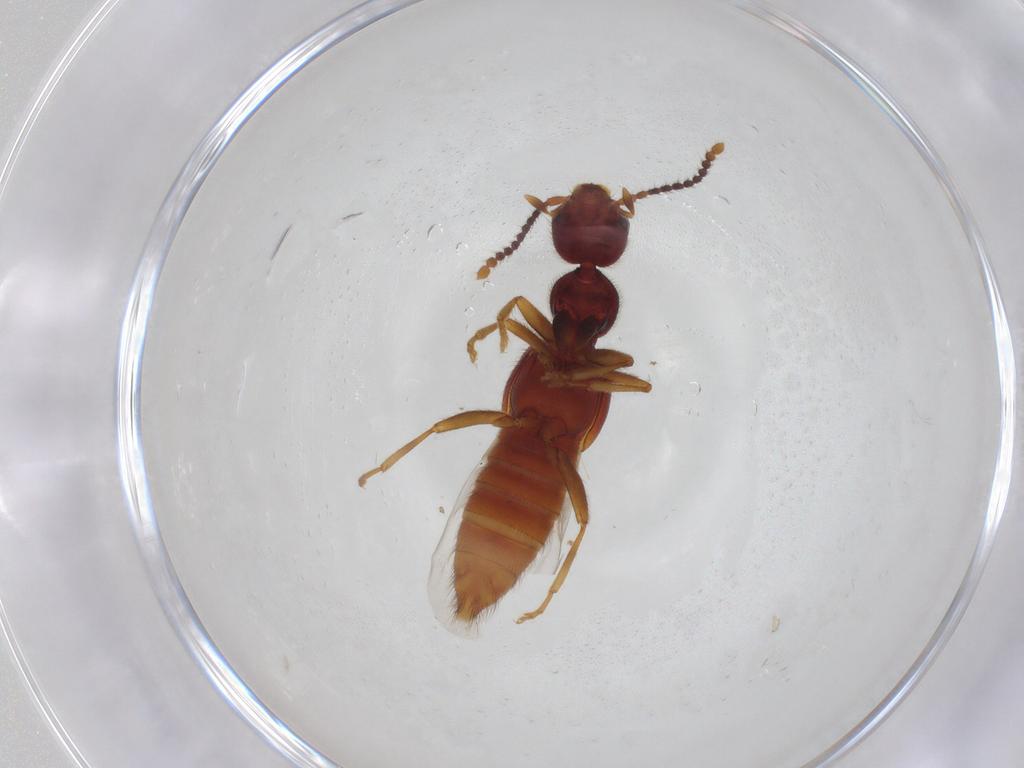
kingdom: Animalia
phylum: Arthropoda
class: Insecta
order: Coleoptera
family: Staphylinidae
